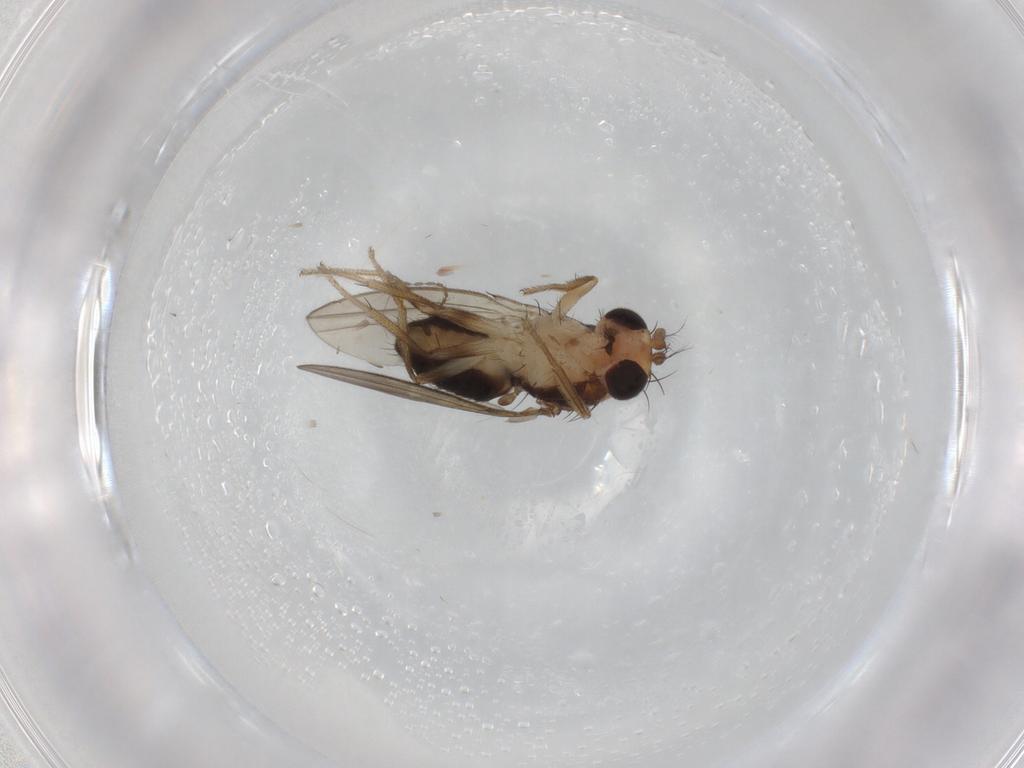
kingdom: Animalia
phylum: Arthropoda
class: Insecta
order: Diptera
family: Drosophilidae
